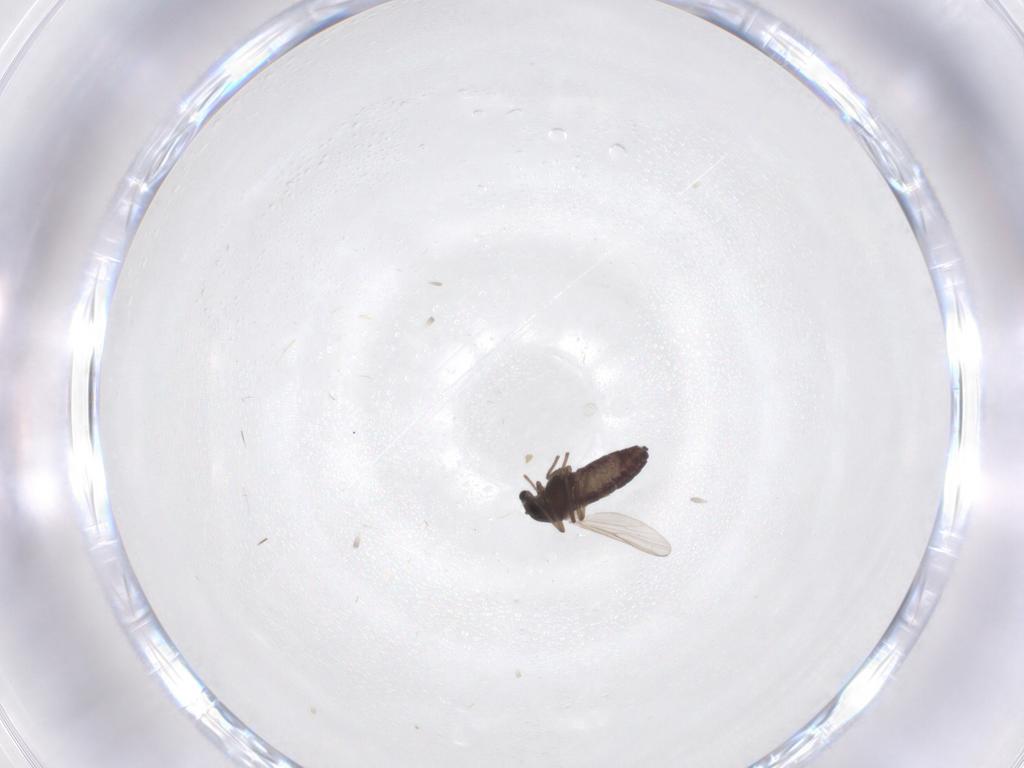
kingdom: Animalia
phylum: Arthropoda
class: Insecta
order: Diptera
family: Chironomidae
